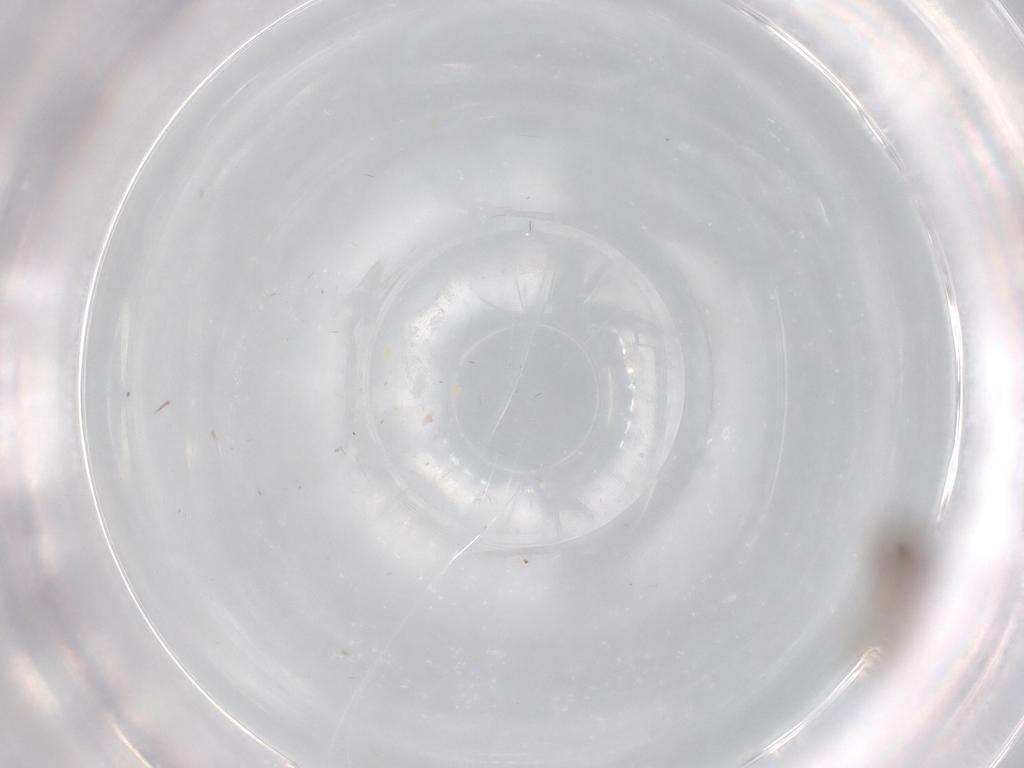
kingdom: Animalia
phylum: Arthropoda
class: Insecta
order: Diptera
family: Chironomidae
